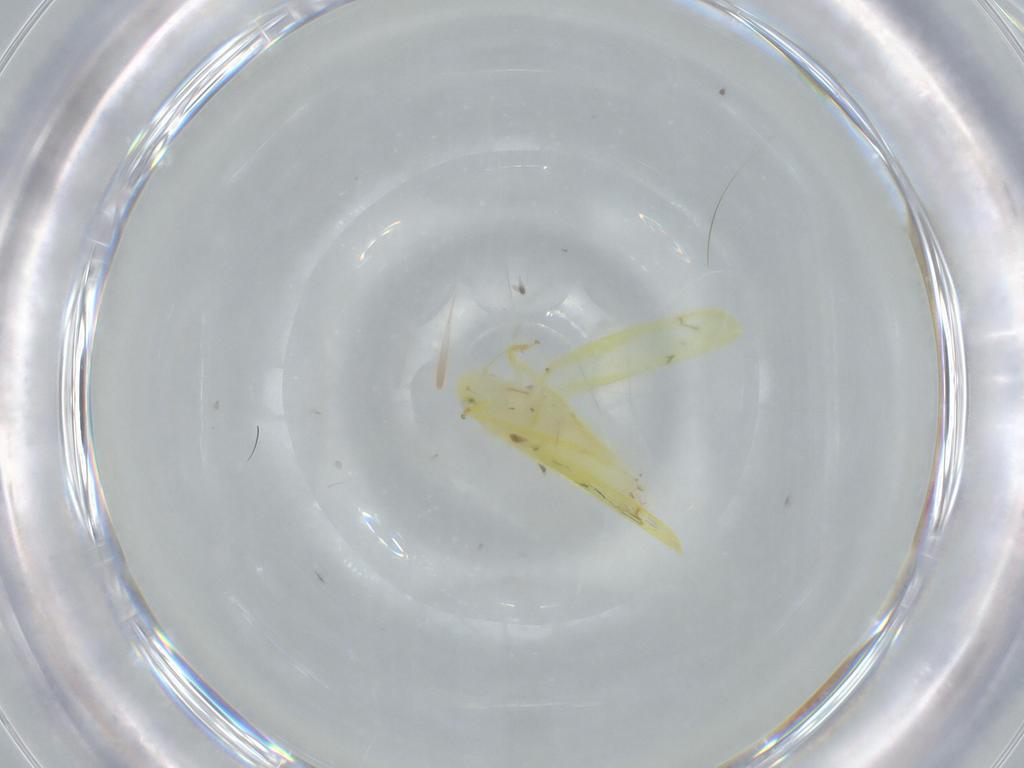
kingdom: Animalia
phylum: Arthropoda
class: Insecta
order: Hemiptera
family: Cicadellidae
